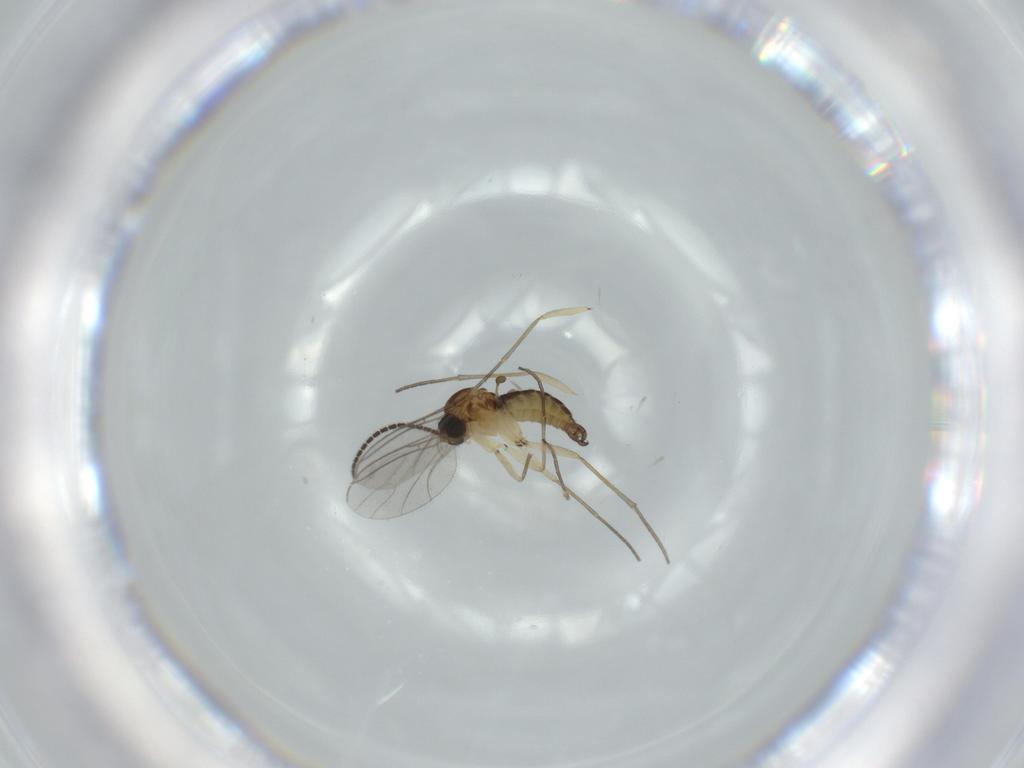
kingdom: Animalia
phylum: Arthropoda
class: Insecta
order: Diptera
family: Sciaridae
